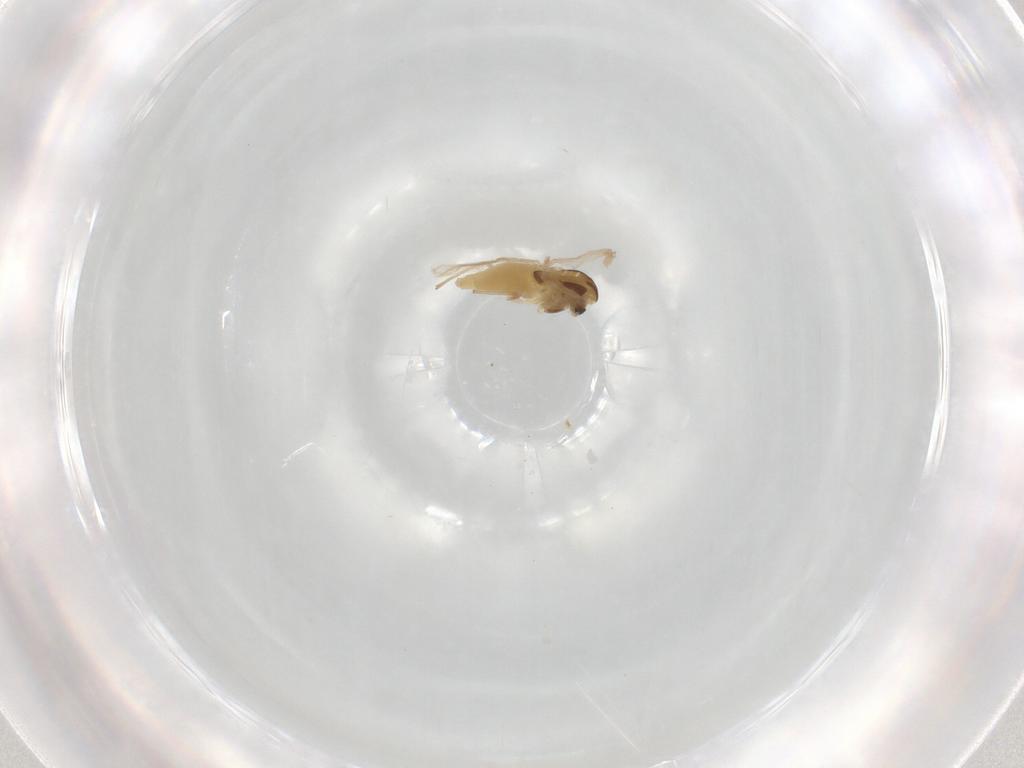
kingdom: Animalia
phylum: Arthropoda
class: Insecta
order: Diptera
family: Chironomidae
